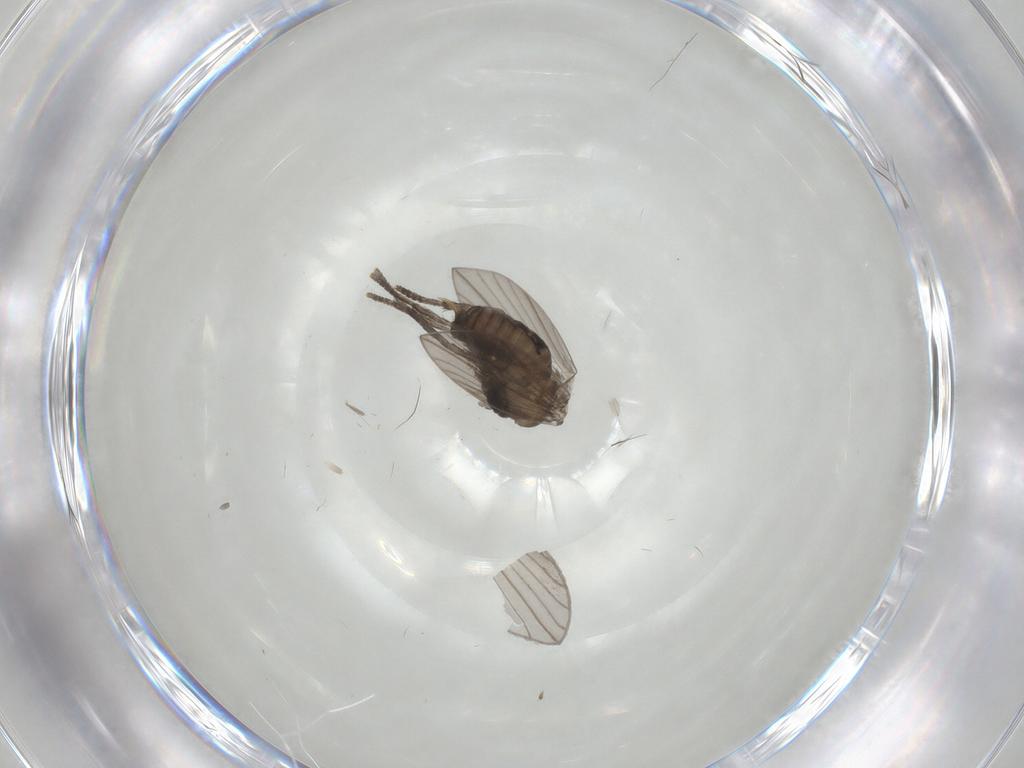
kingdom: Animalia
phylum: Arthropoda
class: Insecta
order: Diptera
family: Psychodidae
